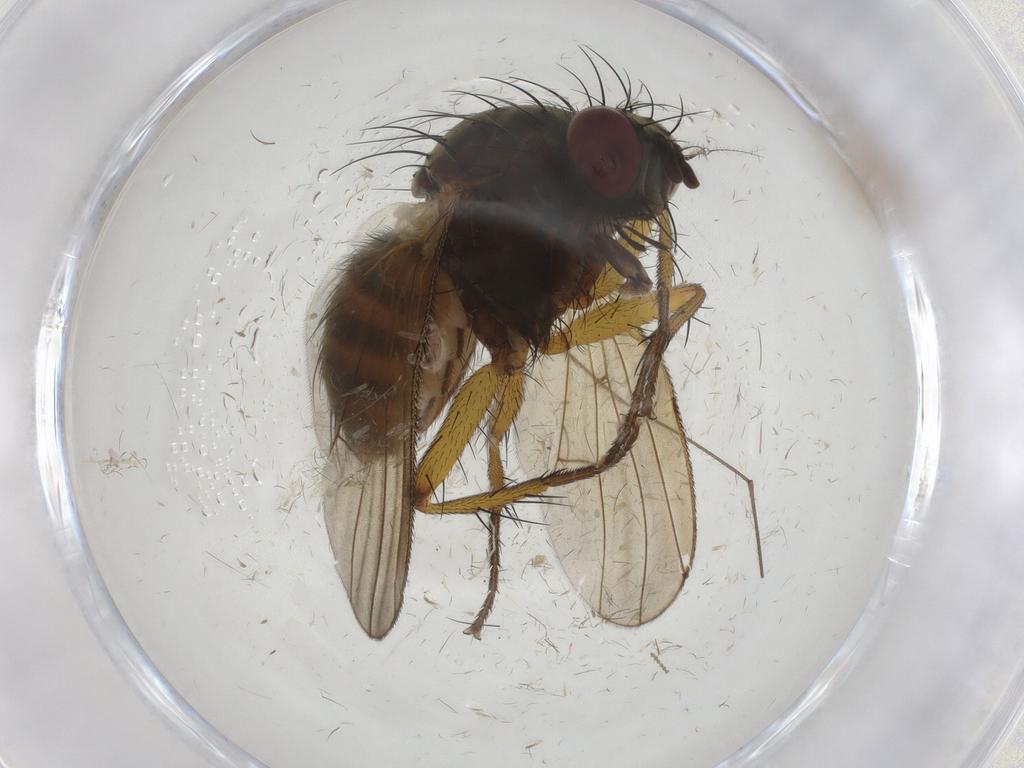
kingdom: Animalia
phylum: Arthropoda
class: Insecta
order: Diptera
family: Muscidae
